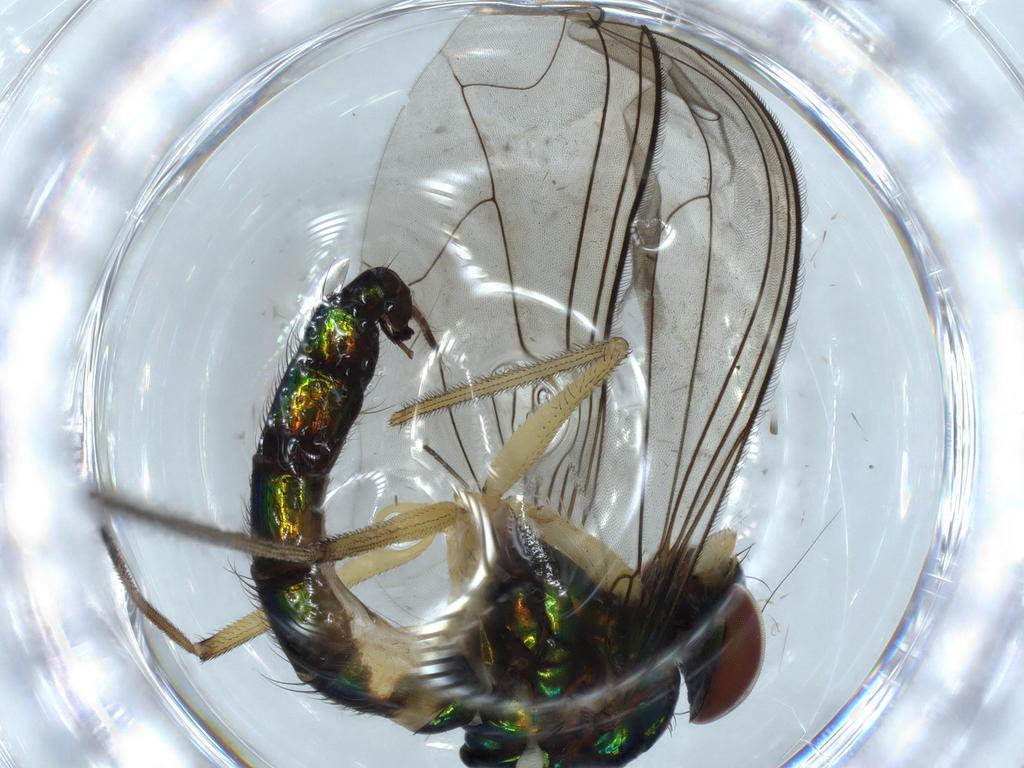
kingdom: Animalia
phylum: Arthropoda
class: Insecta
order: Diptera
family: Dolichopodidae
